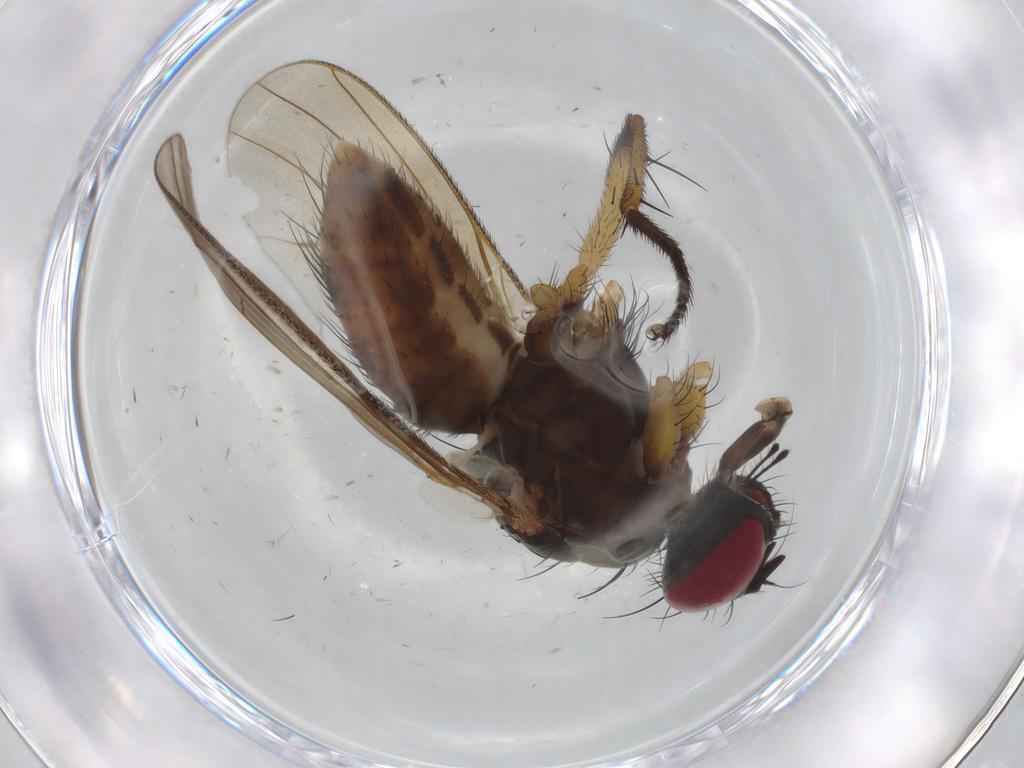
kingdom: Animalia
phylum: Arthropoda
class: Insecta
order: Diptera
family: Muscidae
